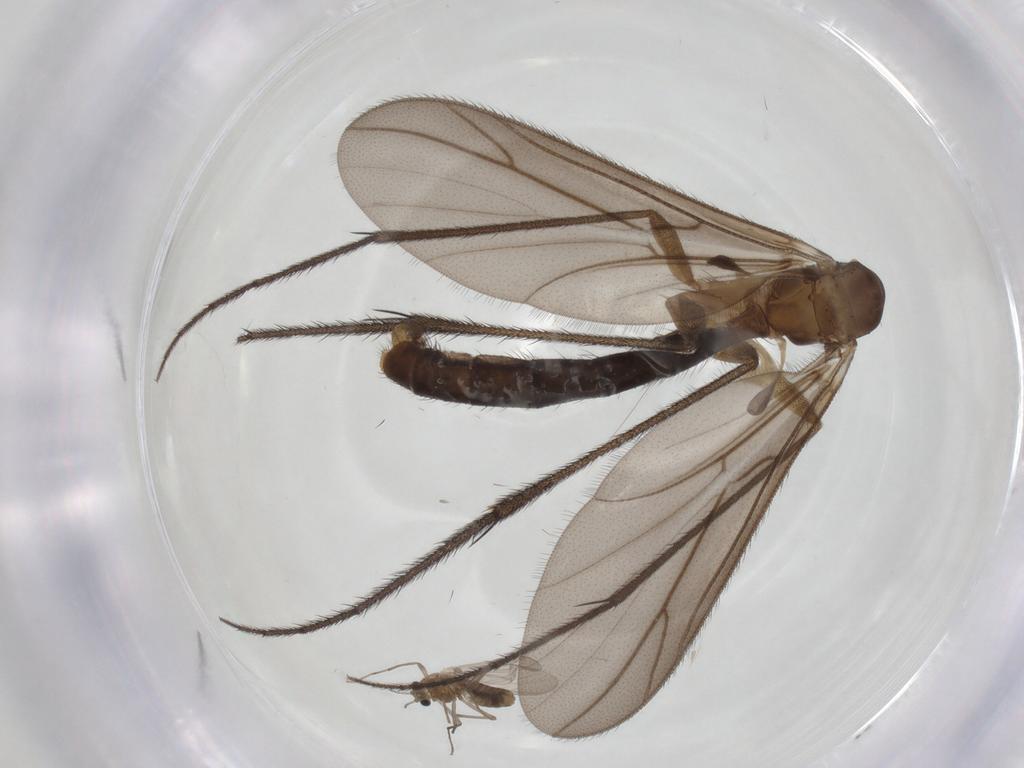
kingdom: Animalia
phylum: Arthropoda
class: Insecta
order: Diptera
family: Ditomyiidae
